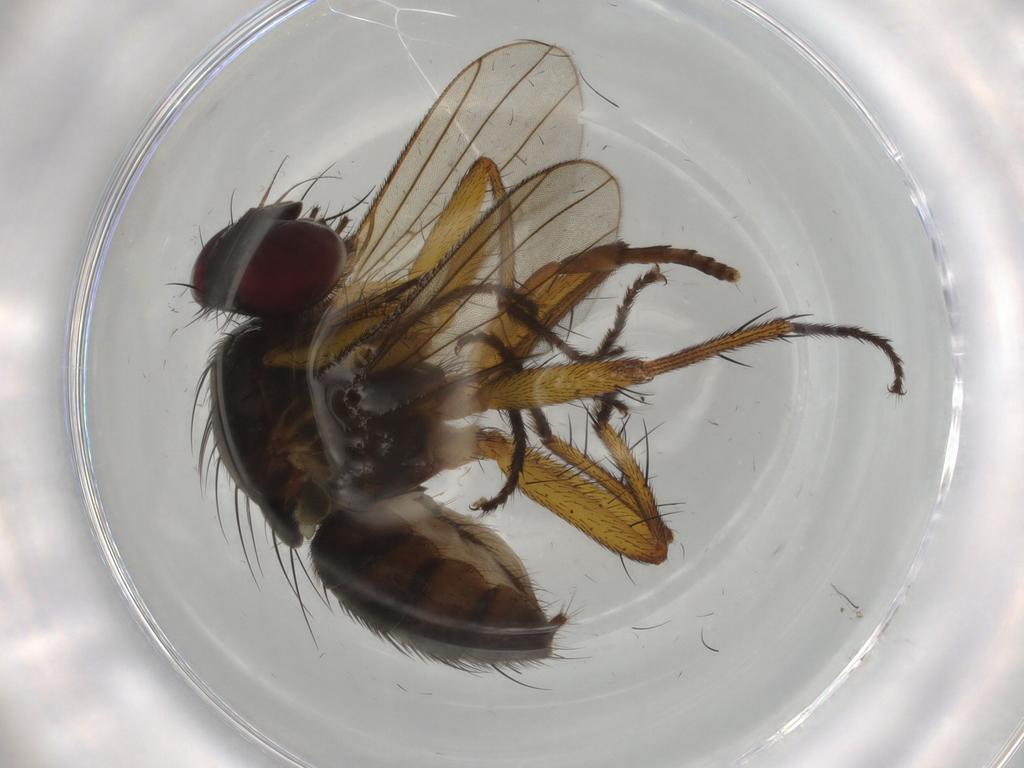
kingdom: Animalia
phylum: Arthropoda
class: Insecta
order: Diptera
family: Muscidae
